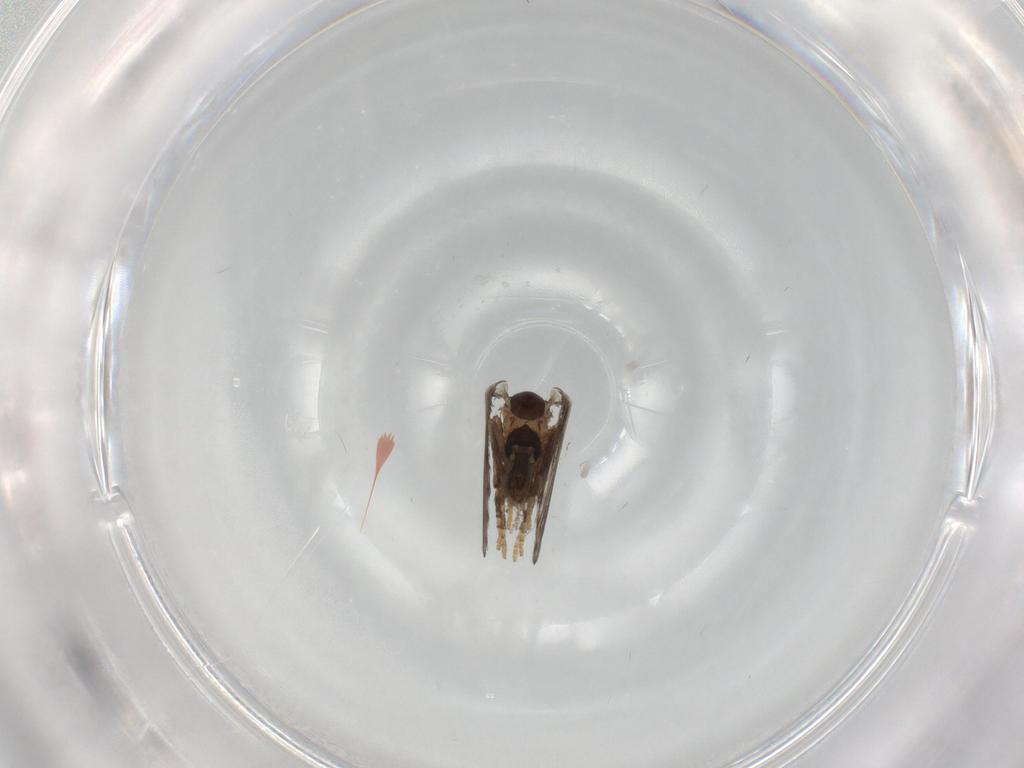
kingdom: Animalia
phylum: Arthropoda
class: Insecta
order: Diptera
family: Psychodidae
